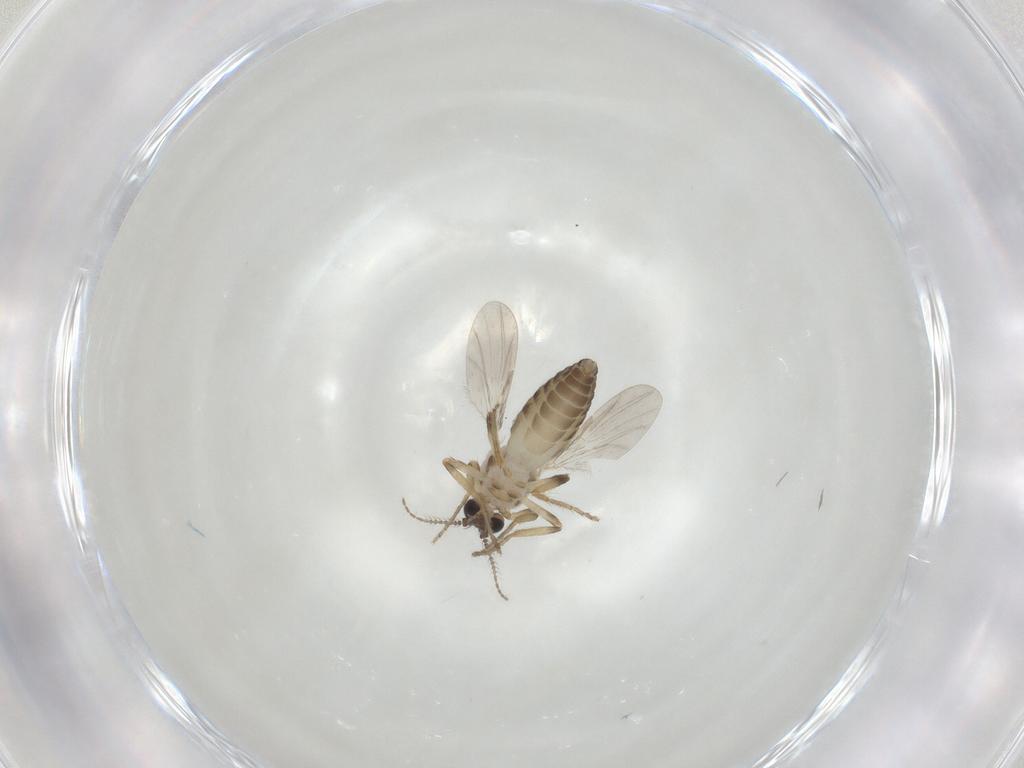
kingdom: Animalia
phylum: Arthropoda
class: Insecta
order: Diptera
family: Ceratopogonidae
